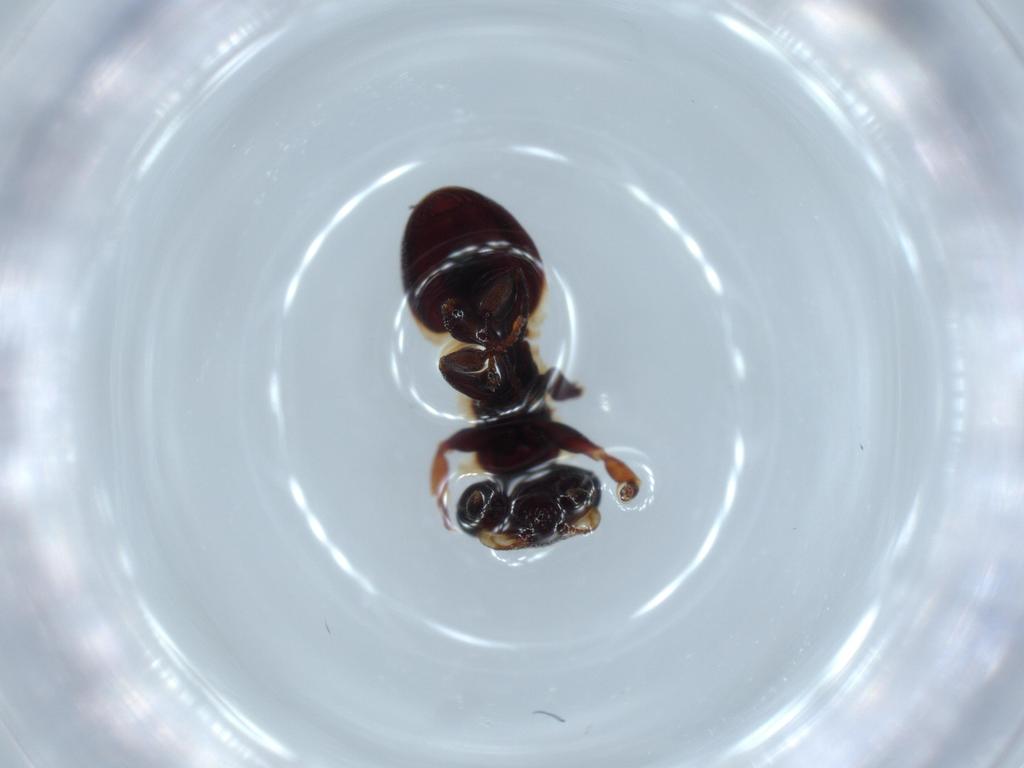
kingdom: Animalia
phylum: Arthropoda
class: Insecta
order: Hymenoptera
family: Formicidae
